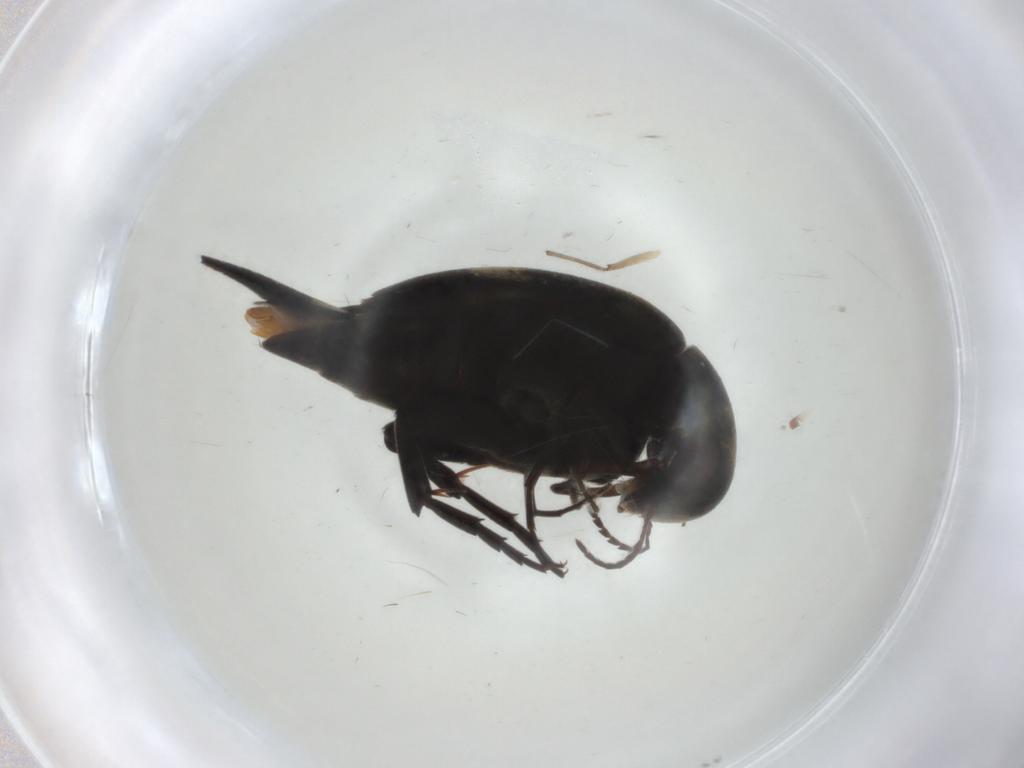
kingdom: Animalia
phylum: Arthropoda
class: Insecta
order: Coleoptera
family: Mordellidae
